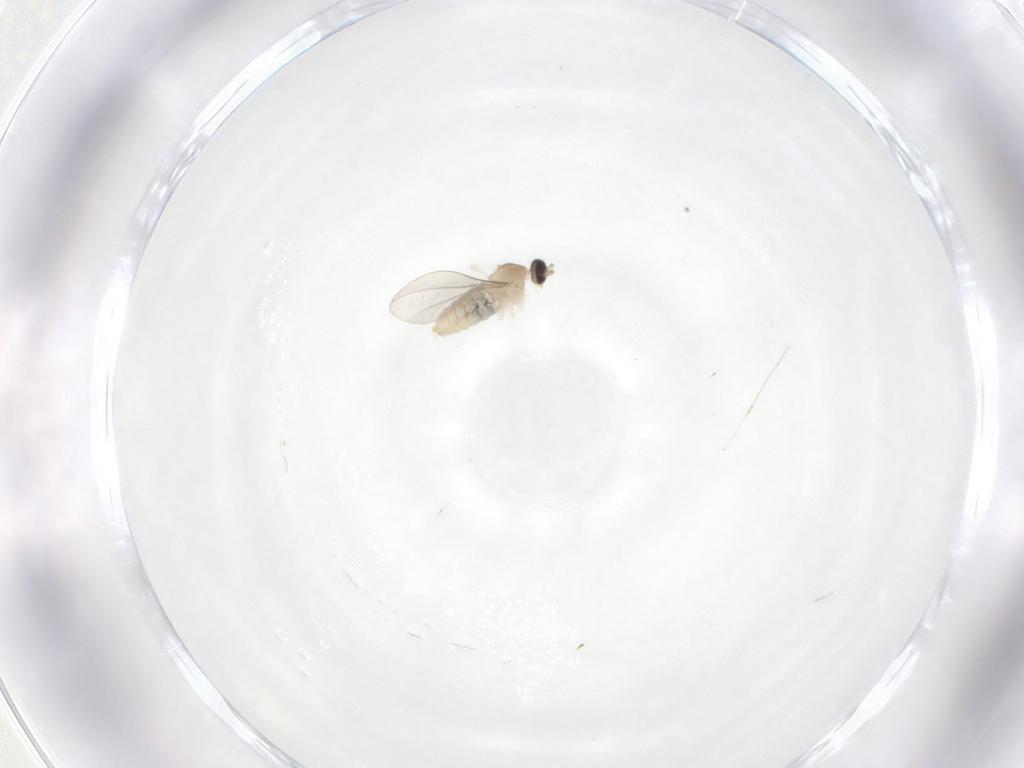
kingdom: Animalia
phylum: Arthropoda
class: Insecta
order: Diptera
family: Cecidomyiidae
